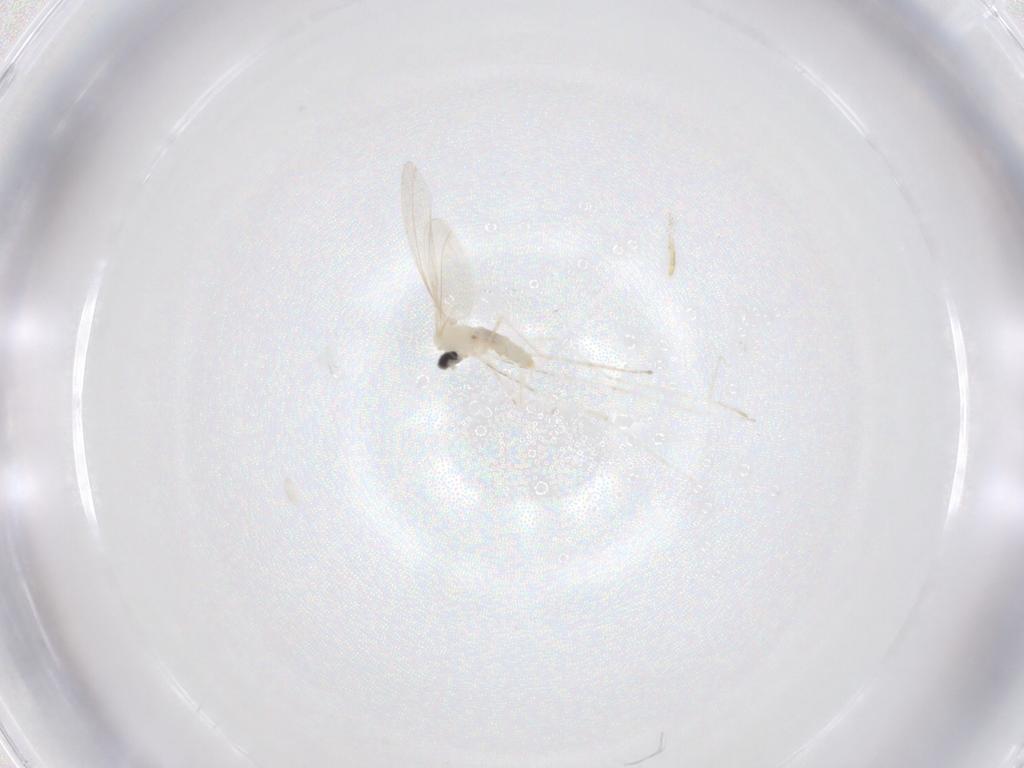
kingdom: Animalia
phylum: Arthropoda
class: Insecta
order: Diptera
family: Cecidomyiidae
